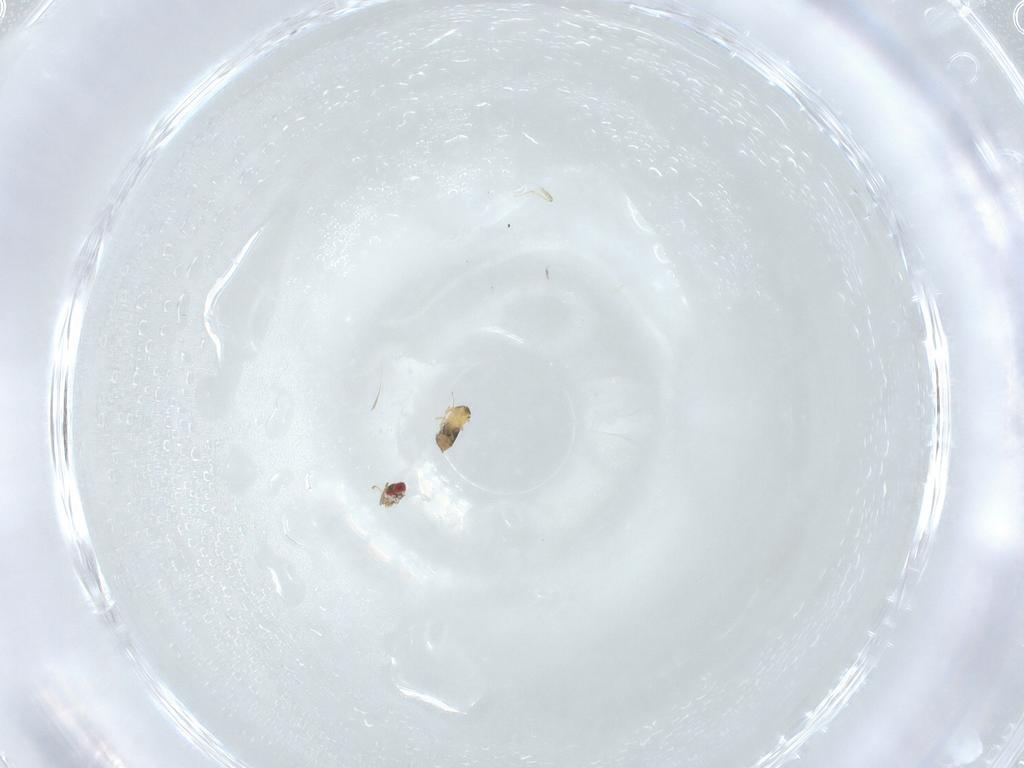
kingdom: Animalia
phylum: Arthropoda
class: Insecta
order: Hymenoptera
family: Trichogrammatidae
